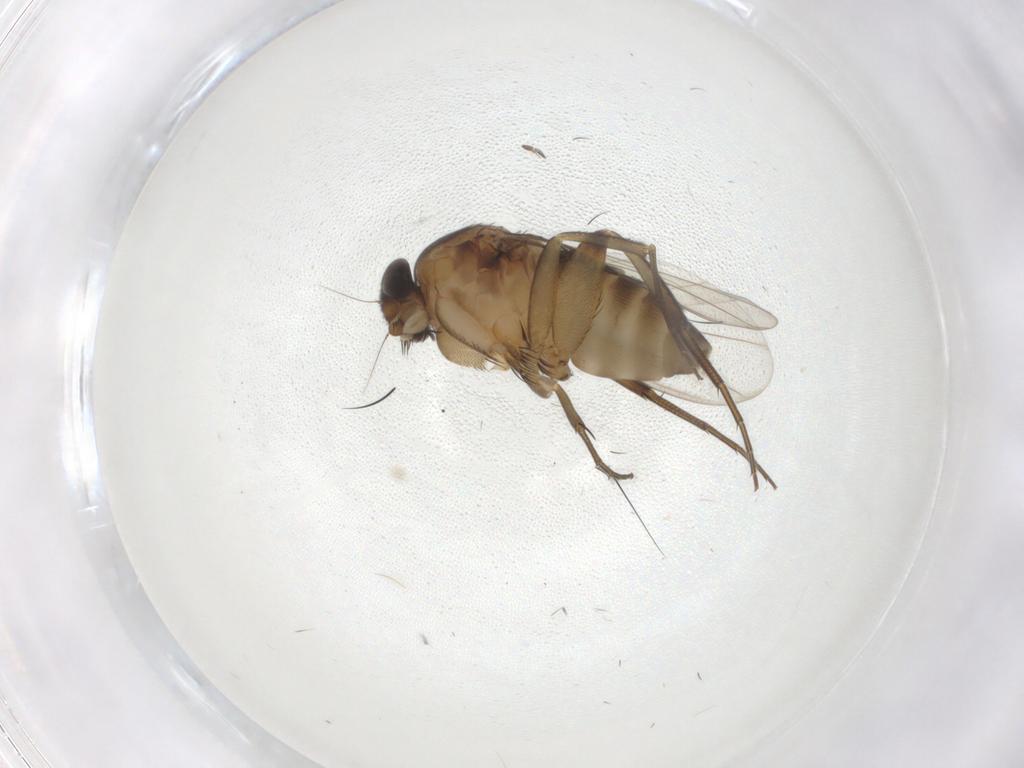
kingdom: Animalia
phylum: Arthropoda
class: Insecta
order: Diptera
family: Phoridae
